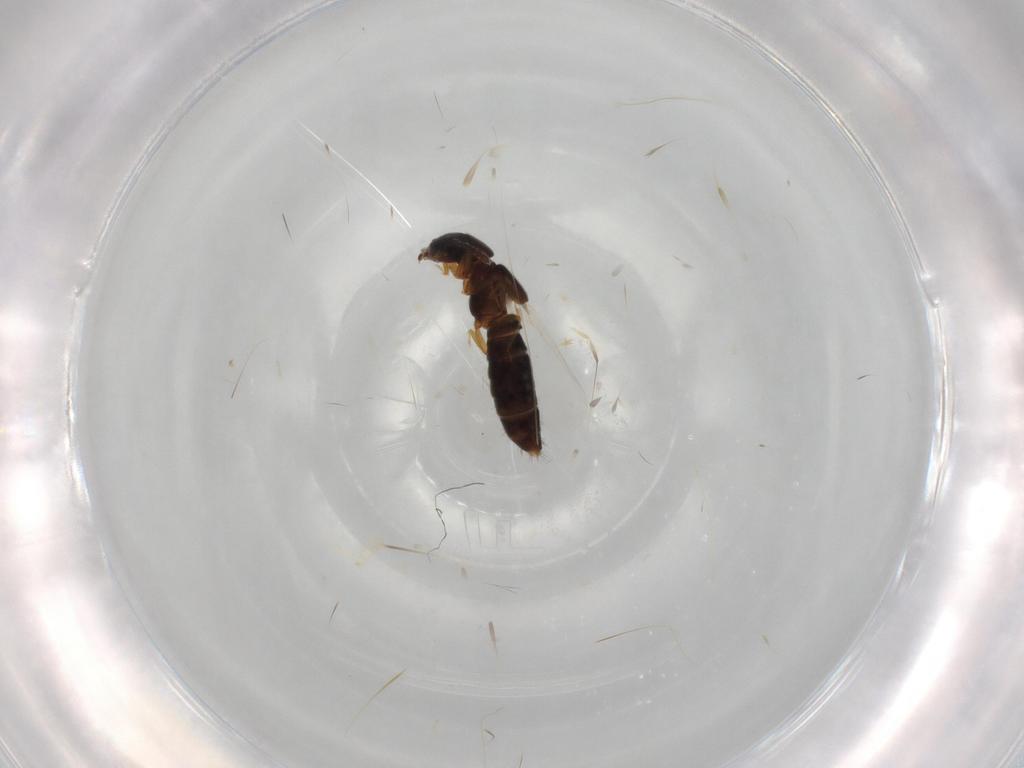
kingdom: Animalia
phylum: Arthropoda
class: Insecta
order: Coleoptera
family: Staphylinidae
